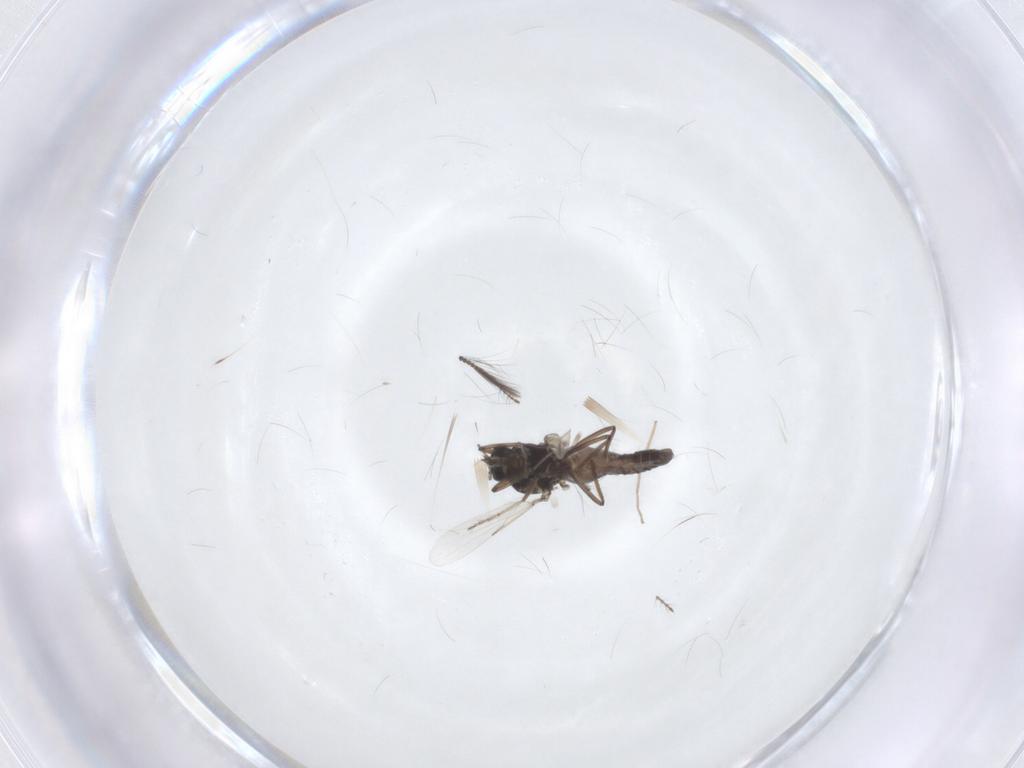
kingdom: Animalia
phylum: Arthropoda
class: Insecta
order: Diptera
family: Ceratopogonidae
